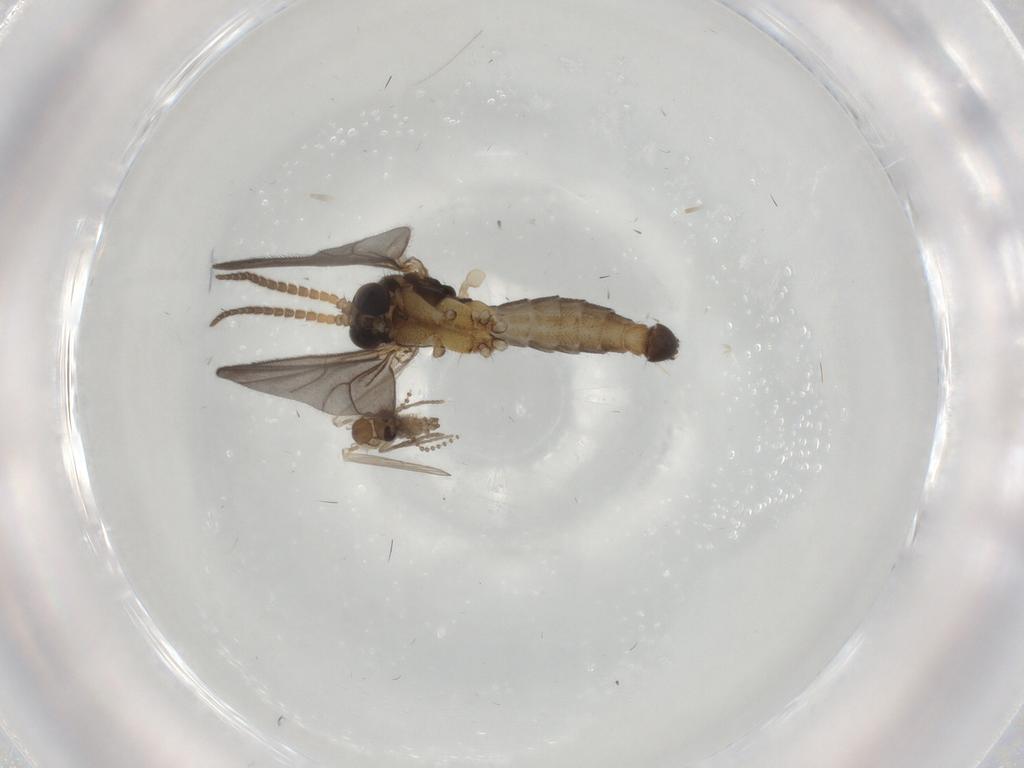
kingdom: Animalia
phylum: Arthropoda
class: Insecta
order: Diptera
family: Mycetophilidae
